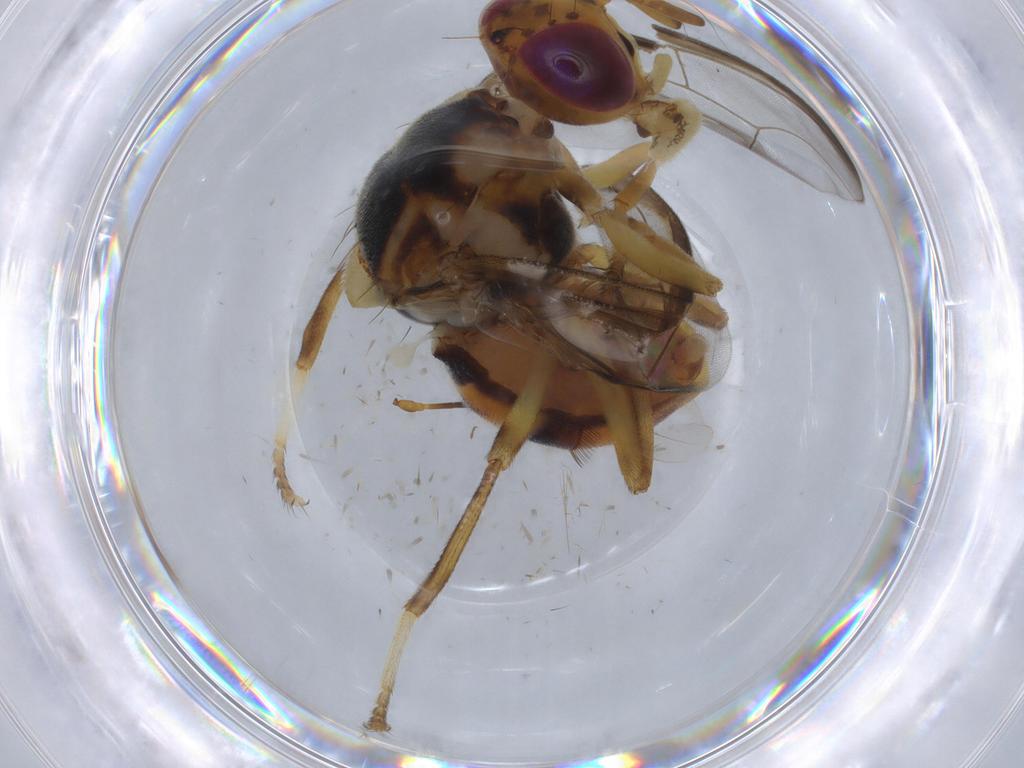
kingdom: Animalia
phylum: Arthropoda
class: Insecta
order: Diptera
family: Tephritidae
